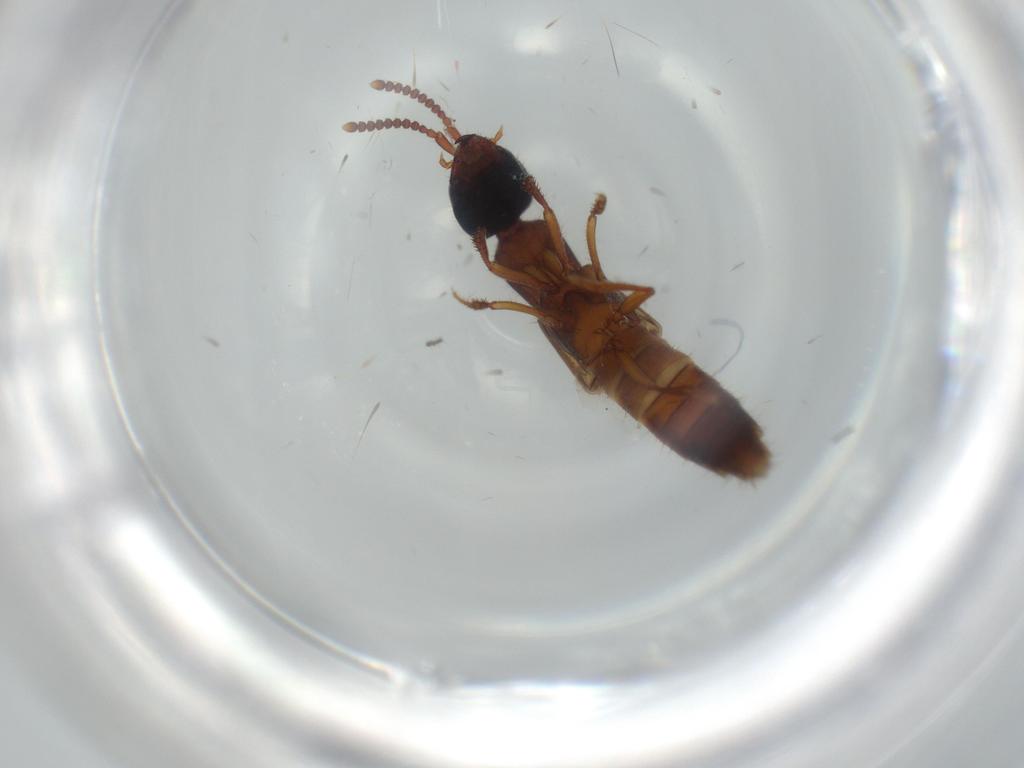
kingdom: Animalia
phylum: Arthropoda
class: Insecta
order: Coleoptera
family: Staphylinidae
